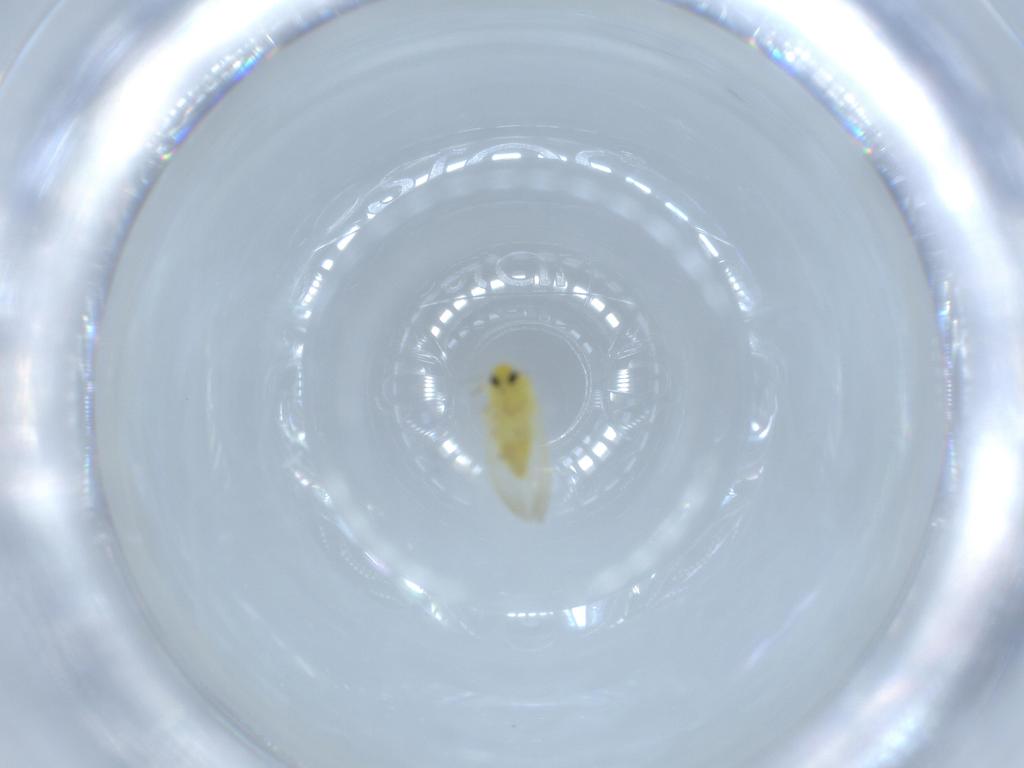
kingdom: Animalia
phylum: Arthropoda
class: Insecta
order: Hemiptera
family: Aleyrodidae
